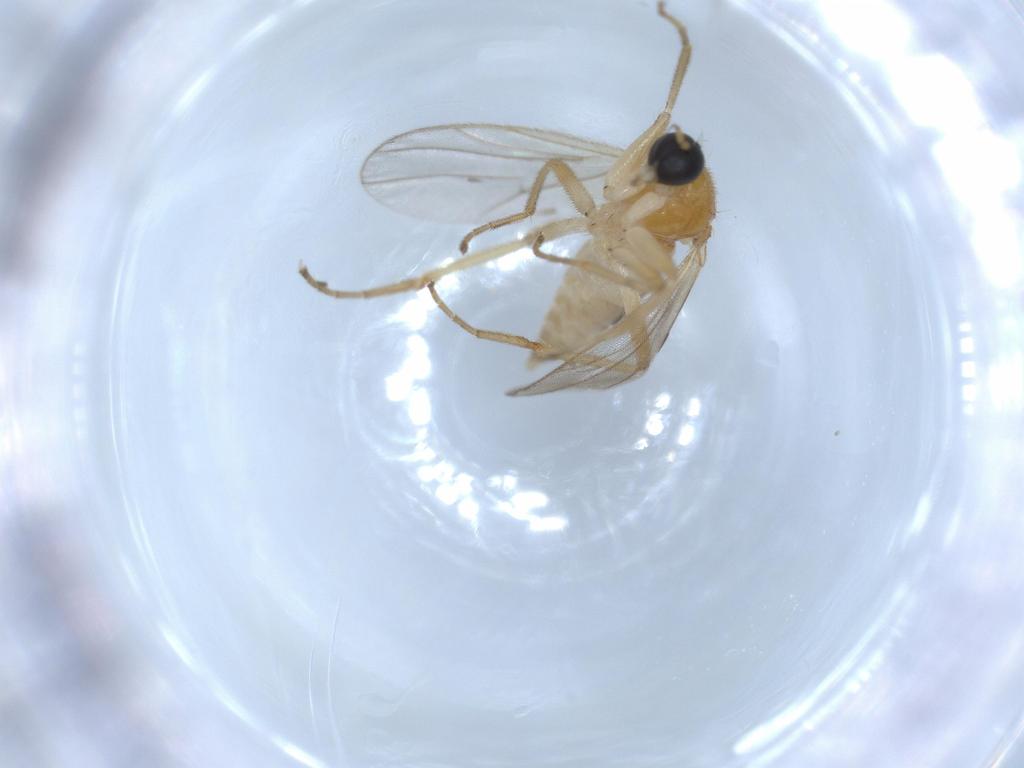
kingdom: Animalia
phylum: Arthropoda
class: Insecta
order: Diptera
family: Hybotidae
